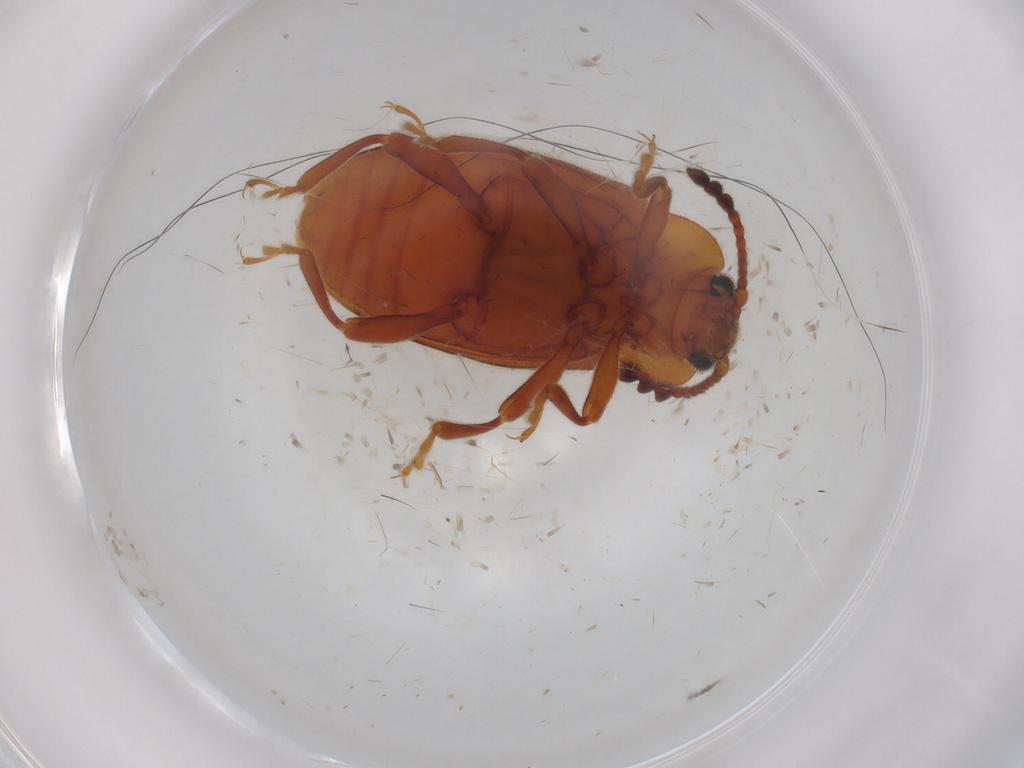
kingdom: Animalia
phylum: Arthropoda
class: Insecta
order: Coleoptera
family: Endomychidae
